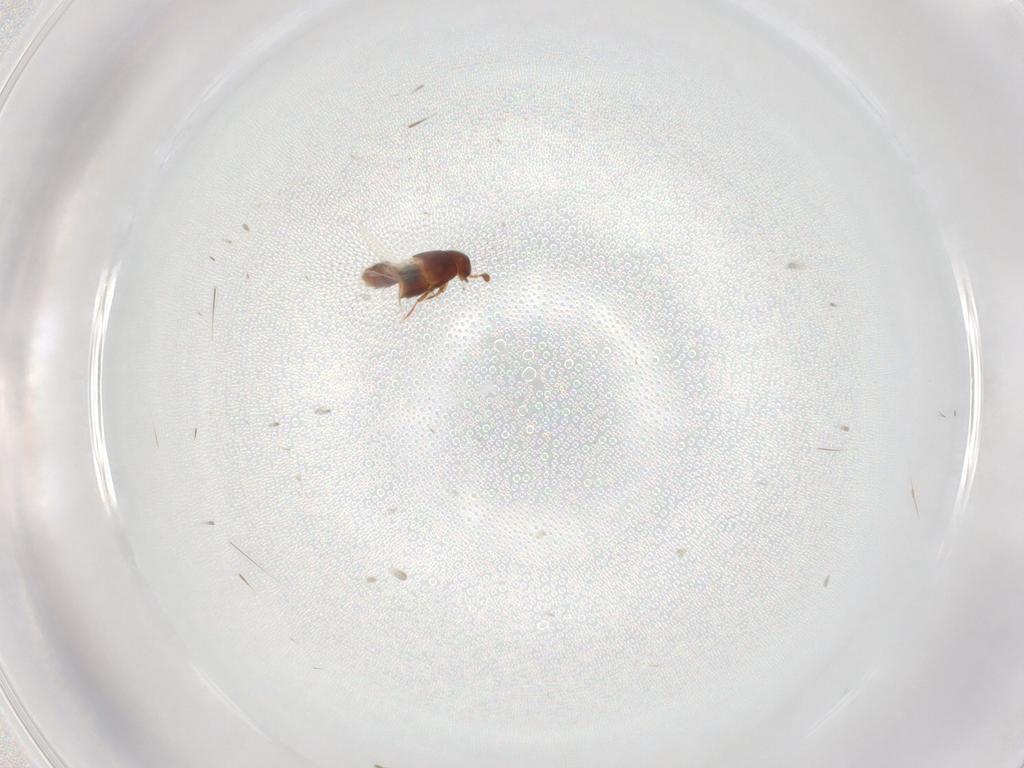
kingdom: Animalia
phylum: Arthropoda
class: Insecta
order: Coleoptera
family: Staphylinidae
